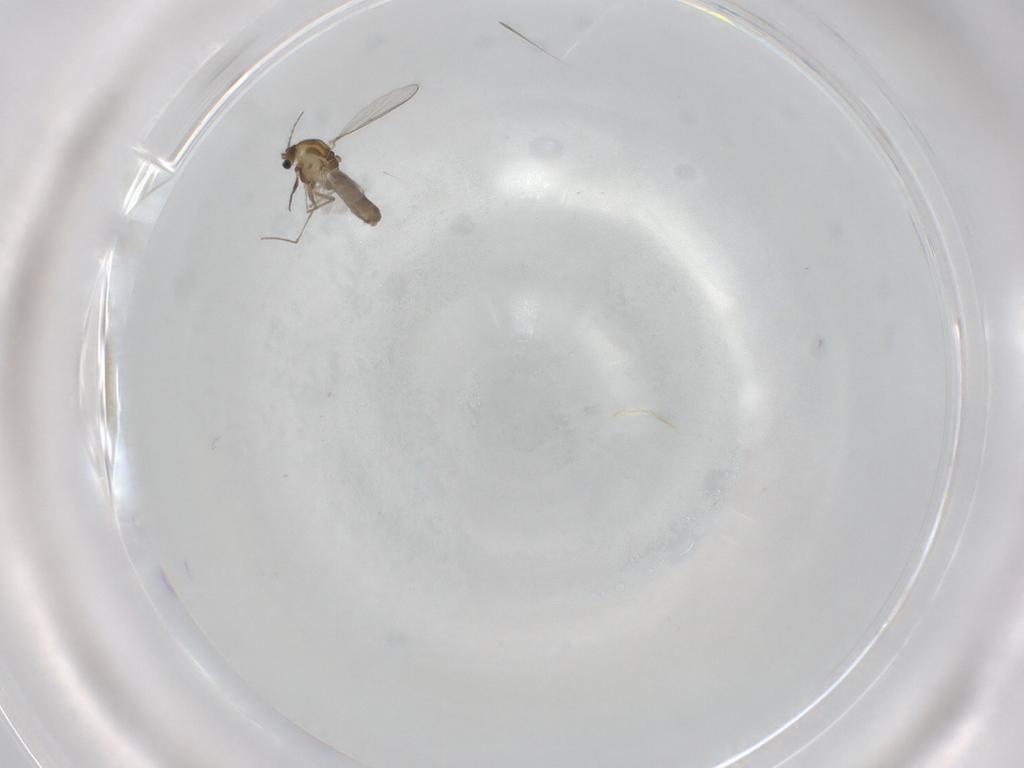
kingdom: Animalia
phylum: Arthropoda
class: Insecta
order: Diptera
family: Chironomidae
